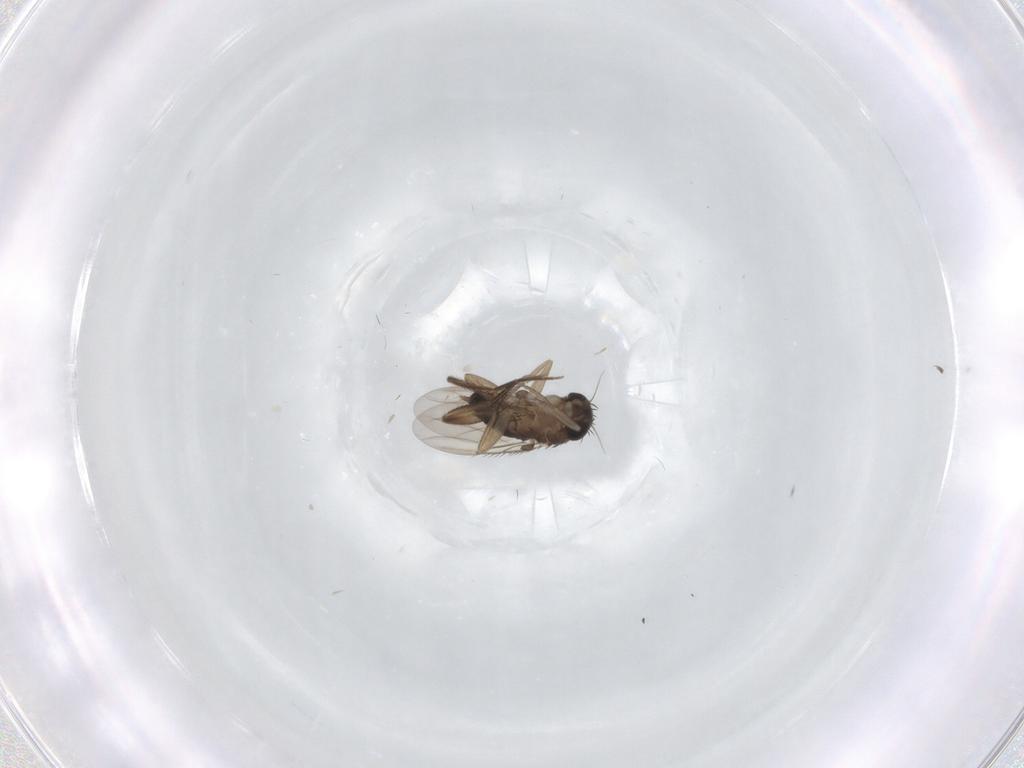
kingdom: Animalia
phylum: Arthropoda
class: Insecta
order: Diptera
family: Phoridae
